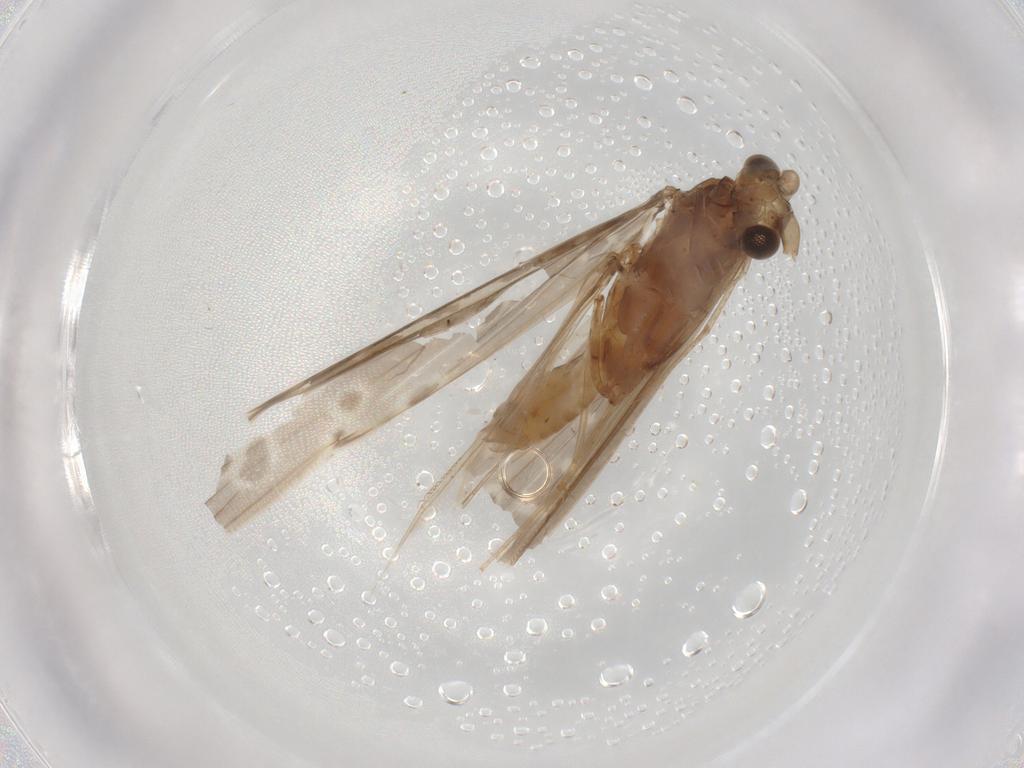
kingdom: Animalia
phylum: Arthropoda
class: Insecta
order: Trichoptera
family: Leptoceridae
